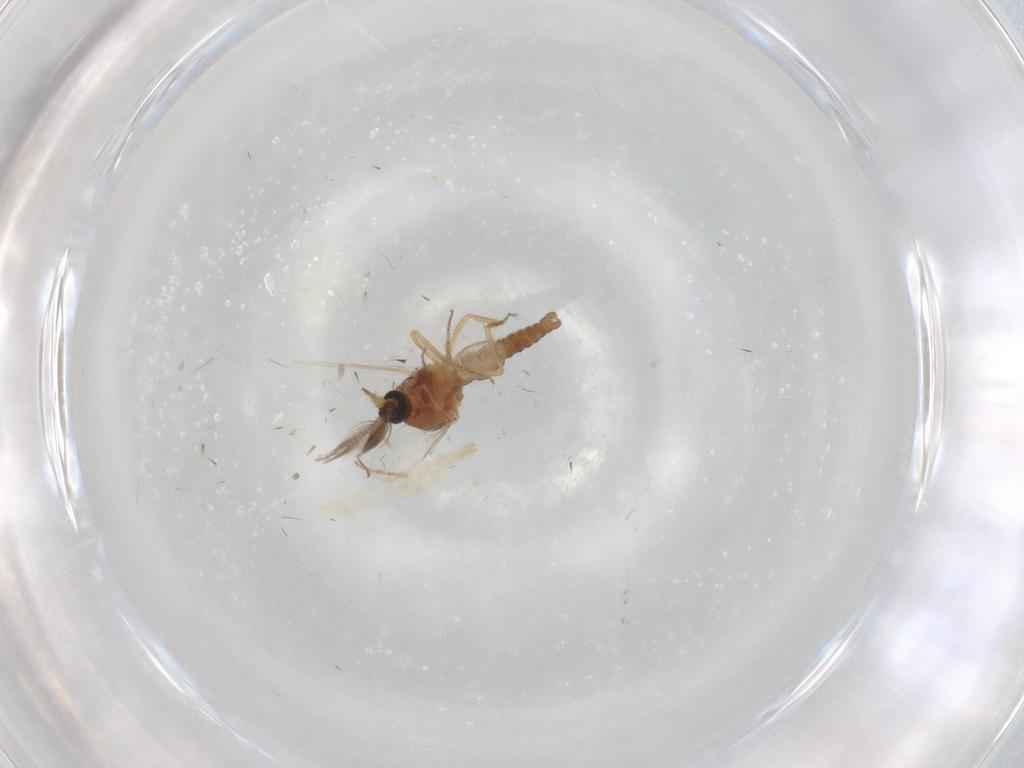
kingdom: Animalia
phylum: Arthropoda
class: Insecta
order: Diptera
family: Ceratopogonidae
